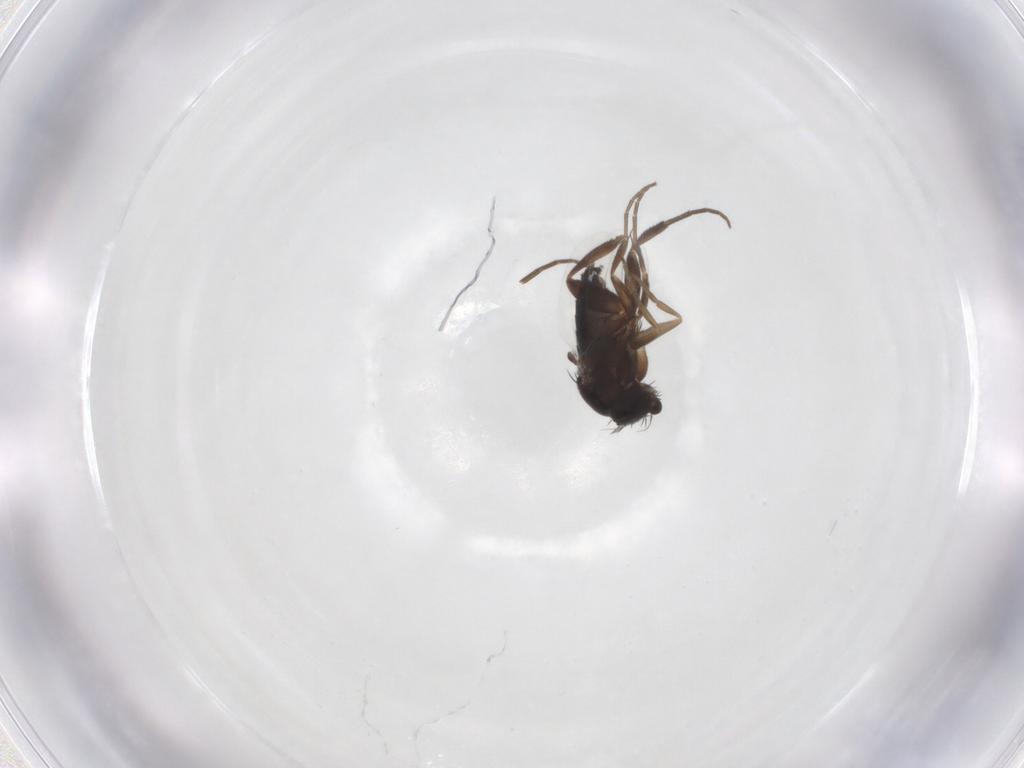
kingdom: Animalia
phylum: Arthropoda
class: Insecta
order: Diptera
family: Phoridae
